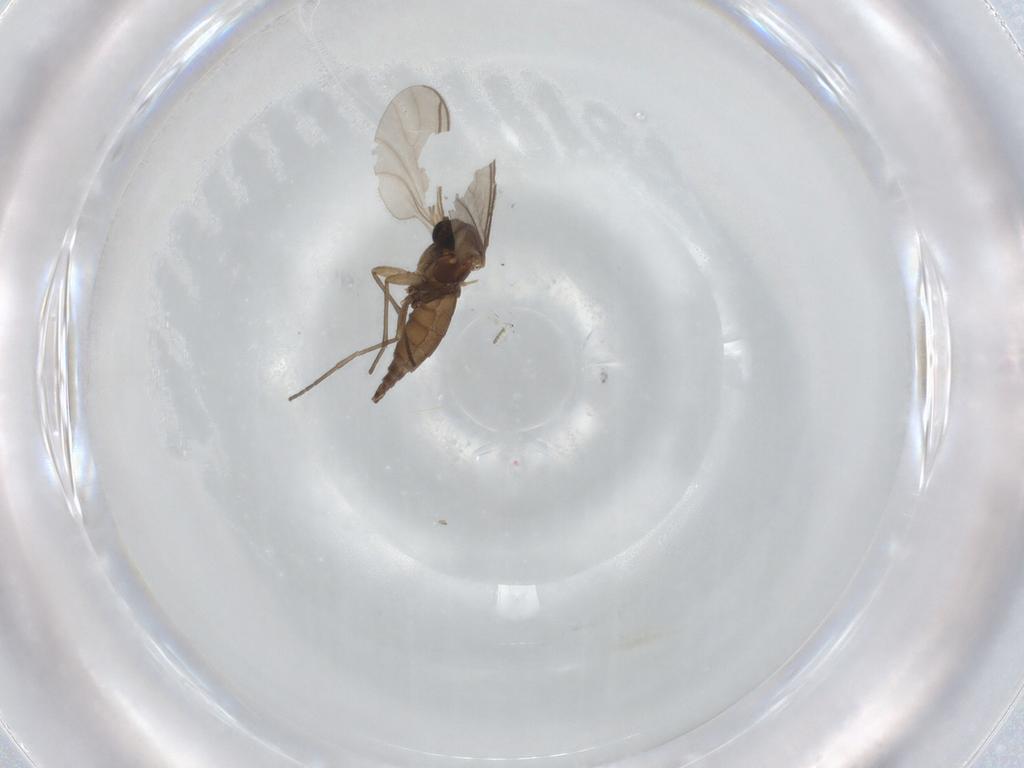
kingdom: Animalia
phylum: Arthropoda
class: Insecta
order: Diptera
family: Sciaridae
